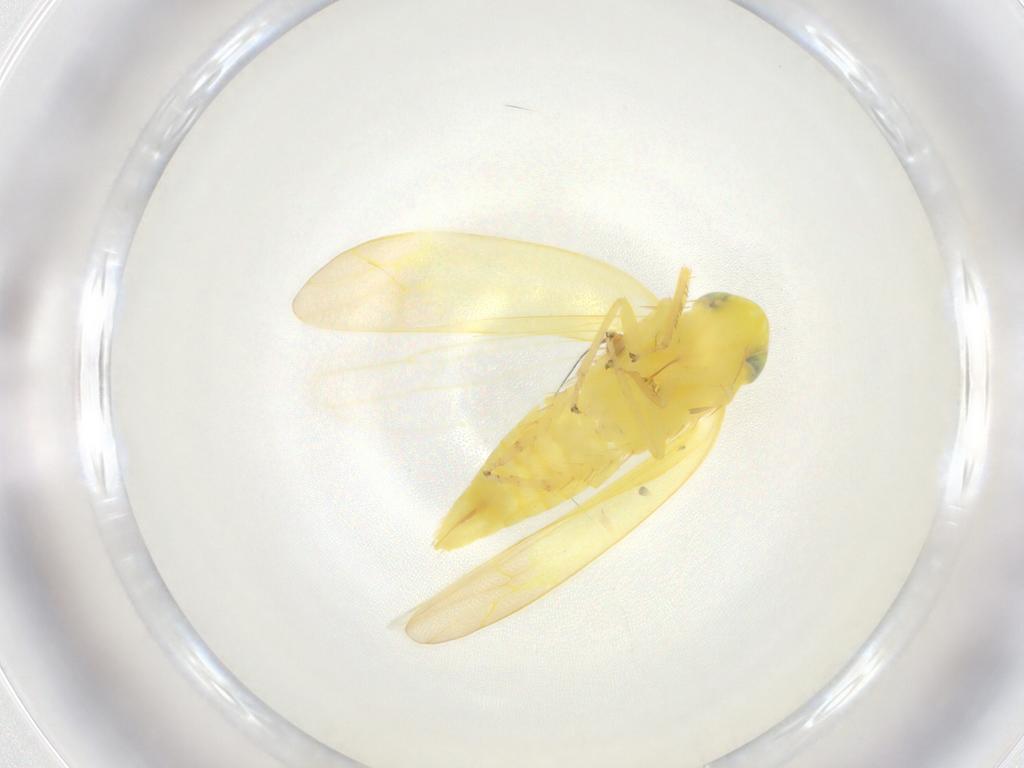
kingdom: Animalia
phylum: Arthropoda
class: Insecta
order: Hemiptera
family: Cicadellidae
